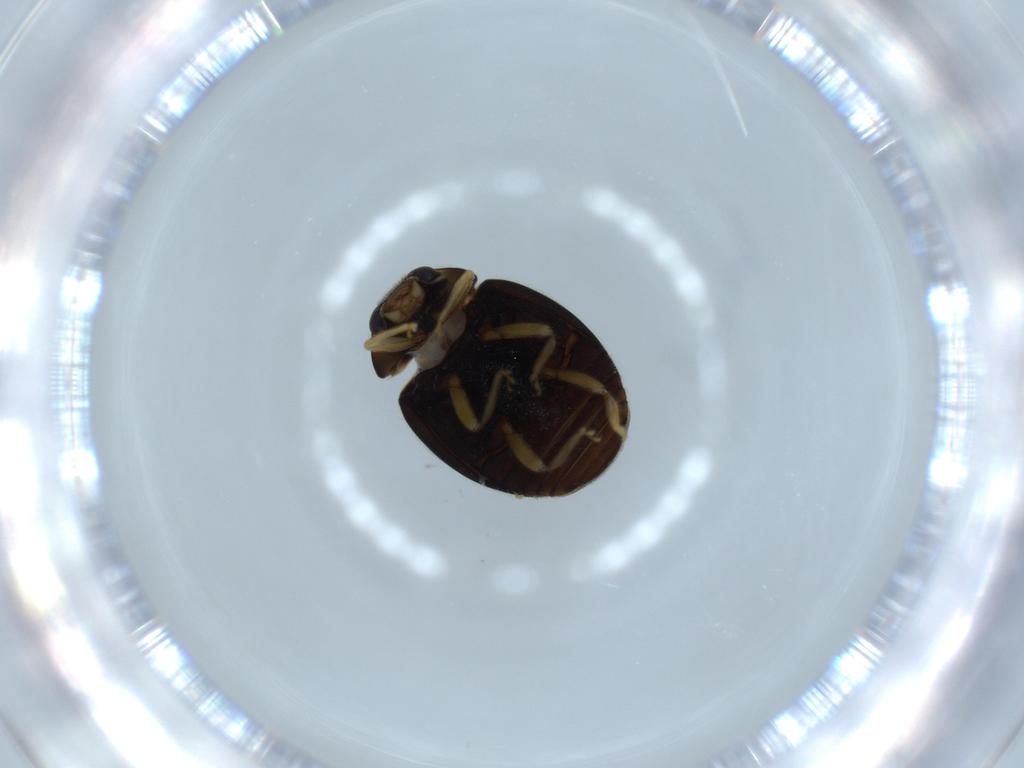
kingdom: Animalia
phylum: Arthropoda
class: Insecta
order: Coleoptera
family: Coccinellidae
